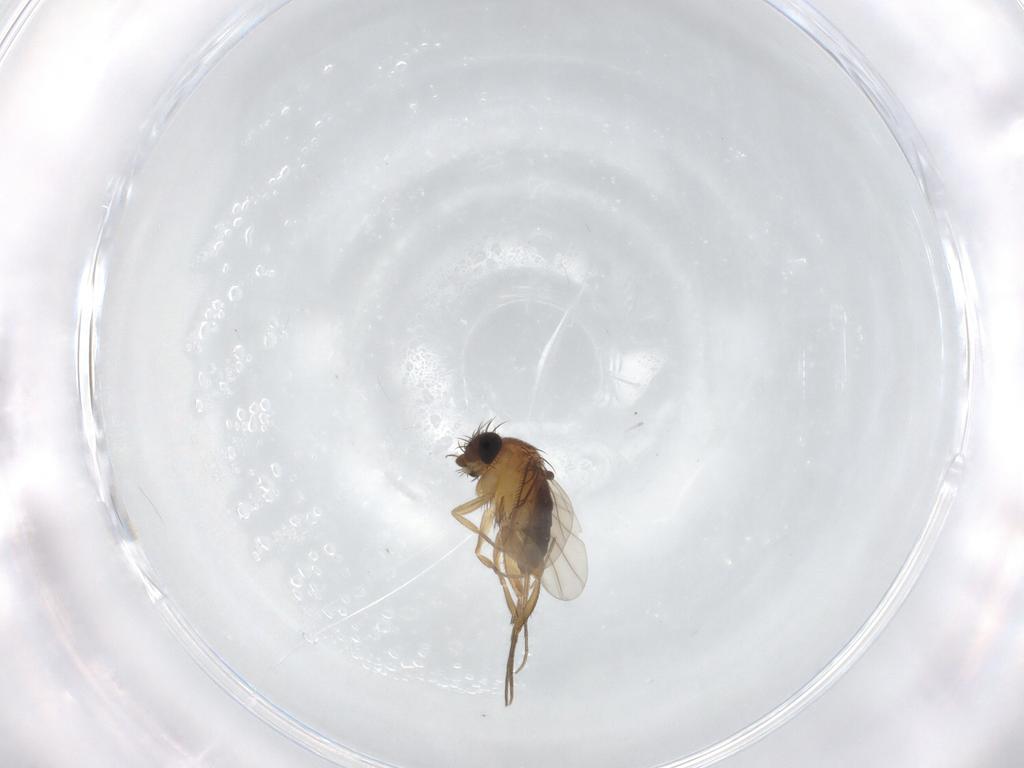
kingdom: Animalia
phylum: Arthropoda
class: Insecta
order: Diptera
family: Phoridae
